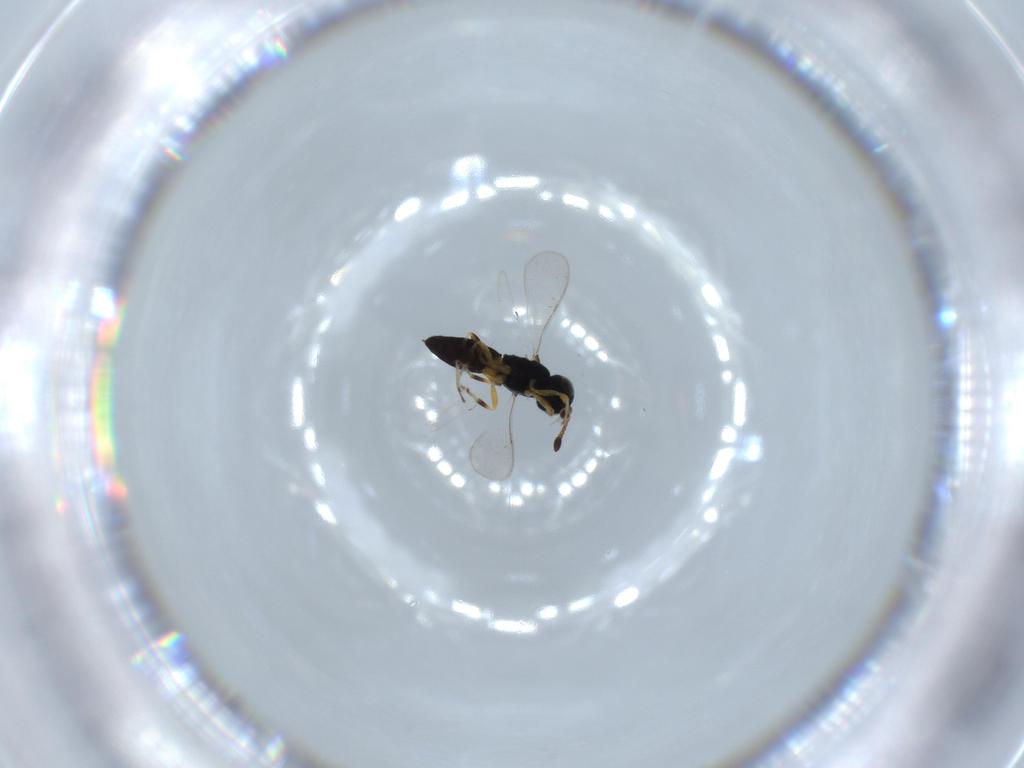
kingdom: Animalia
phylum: Arthropoda
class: Insecta
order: Hymenoptera
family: Scelionidae
